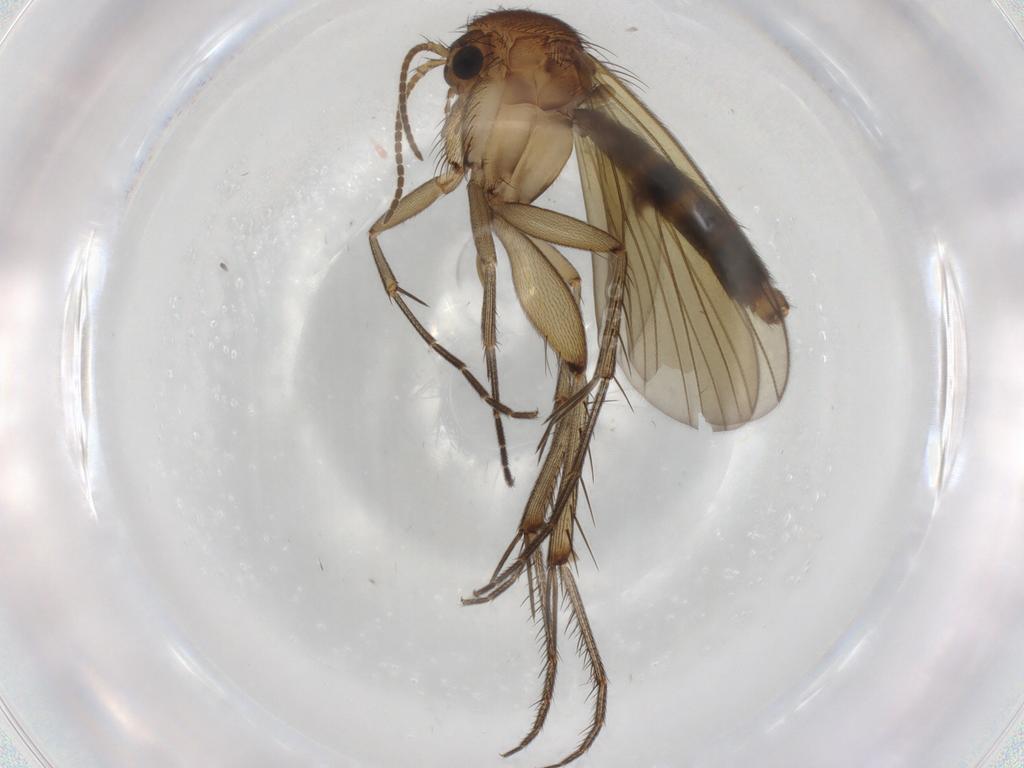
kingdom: Animalia
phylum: Arthropoda
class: Insecta
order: Diptera
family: Mycetophilidae
